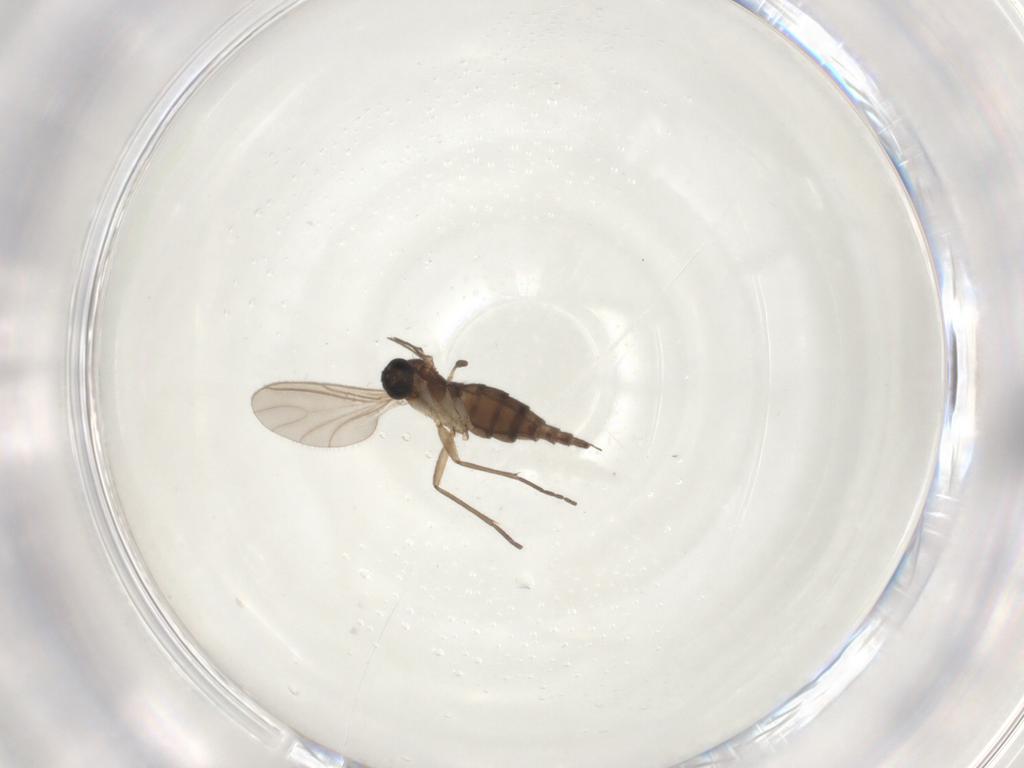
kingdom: Animalia
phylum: Arthropoda
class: Insecta
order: Diptera
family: Sciaridae
